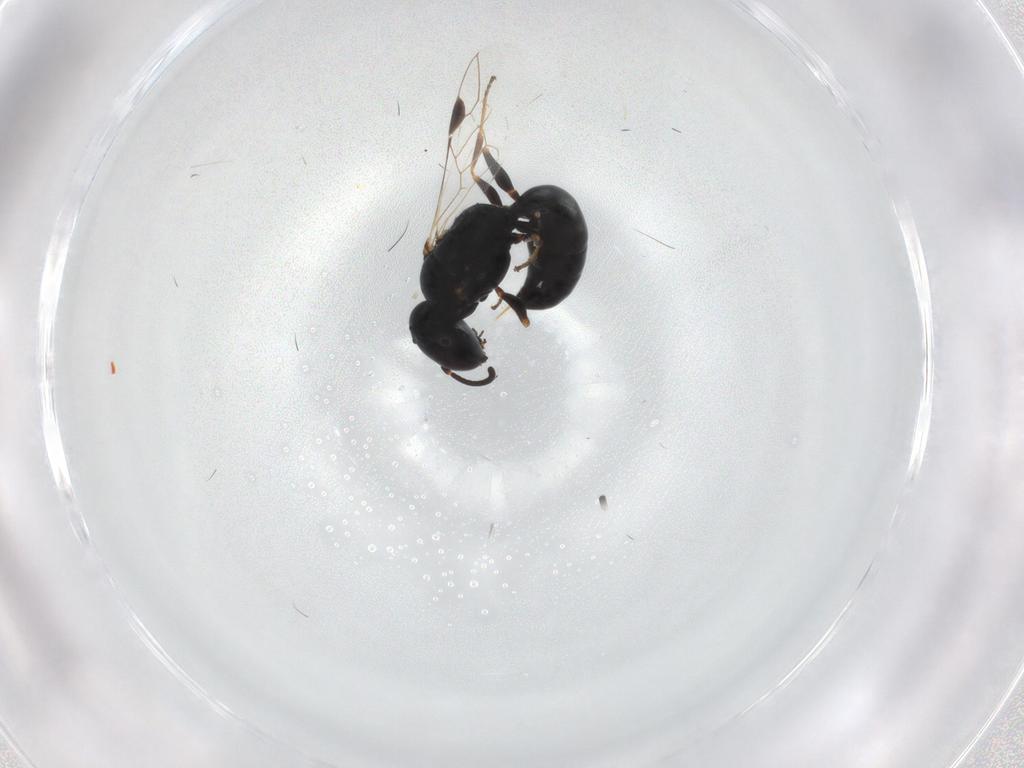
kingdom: Animalia
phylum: Arthropoda
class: Insecta
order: Hymenoptera
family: Crabronidae
